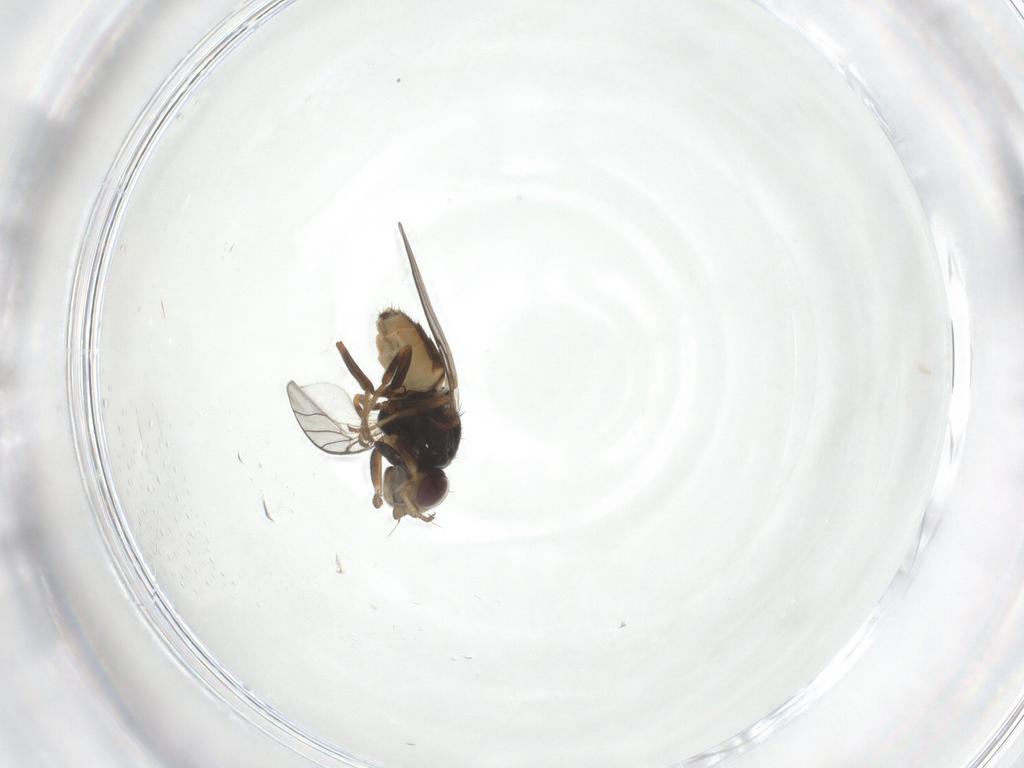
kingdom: Animalia
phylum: Arthropoda
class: Insecta
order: Diptera
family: Chloropidae
